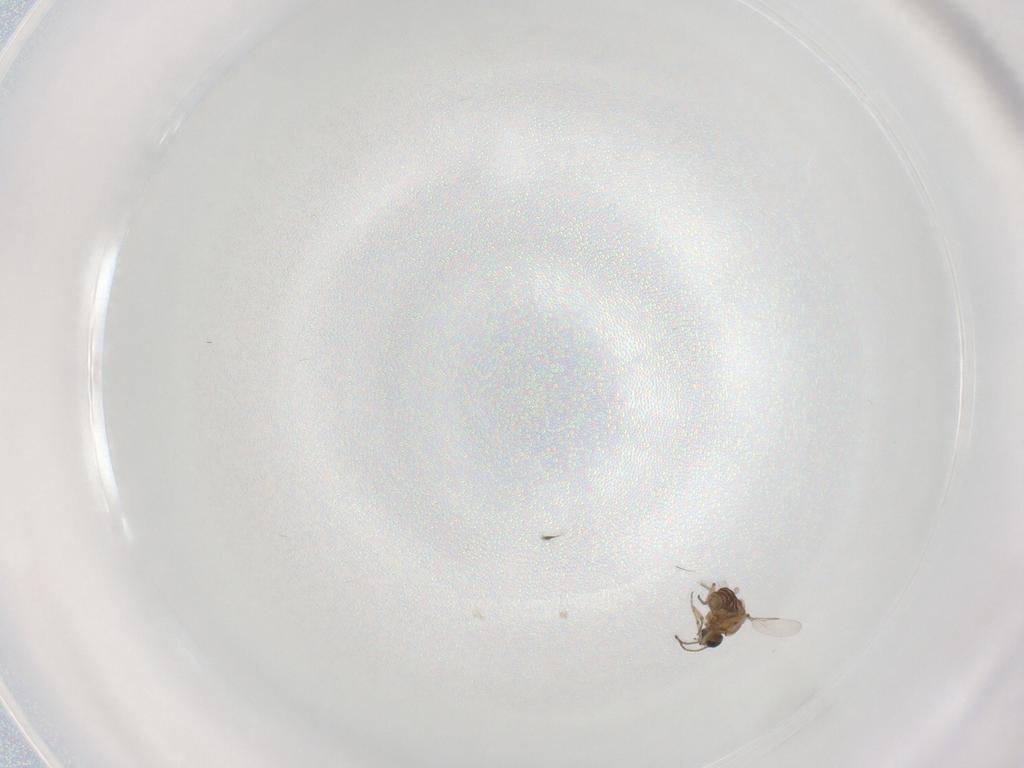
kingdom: Animalia
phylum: Arthropoda
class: Insecta
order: Diptera
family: Ceratopogonidae
